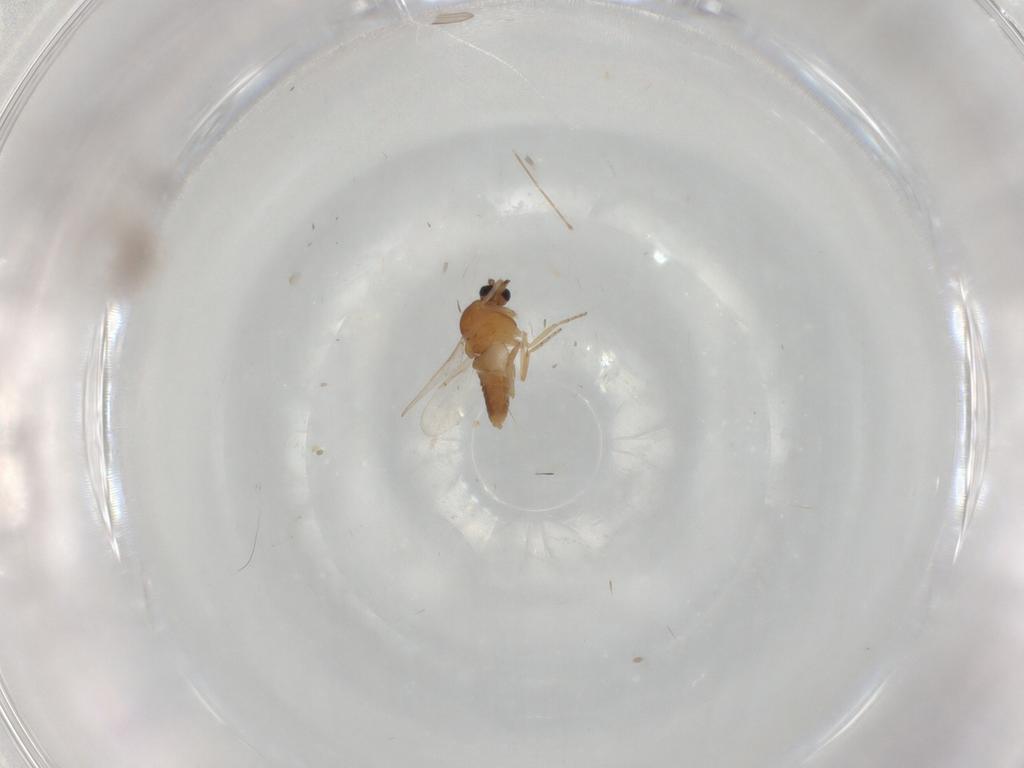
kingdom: Animalia
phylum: Arthropoda
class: Insecta
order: Diptera
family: Ceratopogonidae
